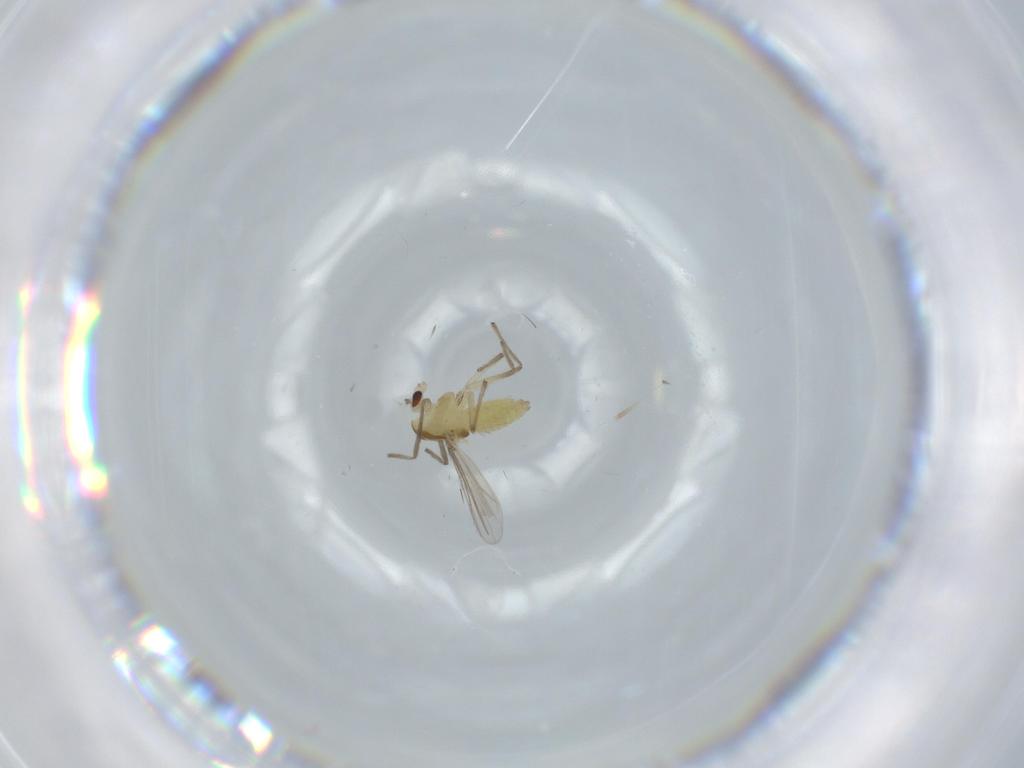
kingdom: Animalia
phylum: Arthropoda
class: Insecta
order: Diptera
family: Chironomidae
